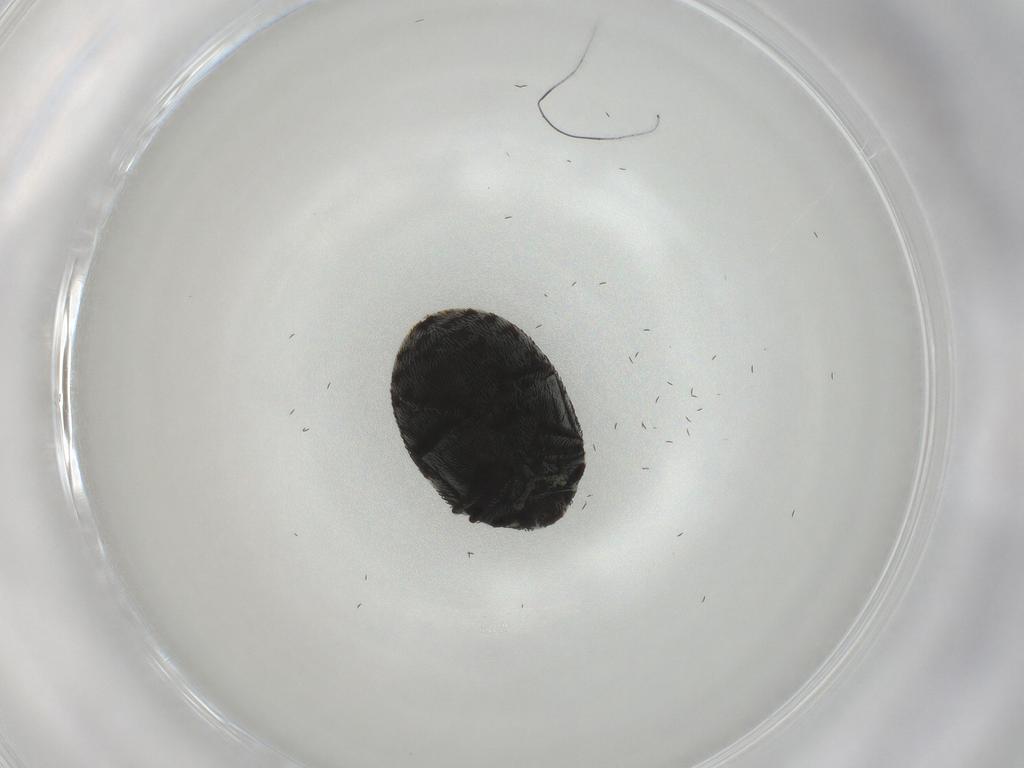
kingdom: Animalia
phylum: Arthropoda
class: Insecta
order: Coleoptera
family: Dermestidae
